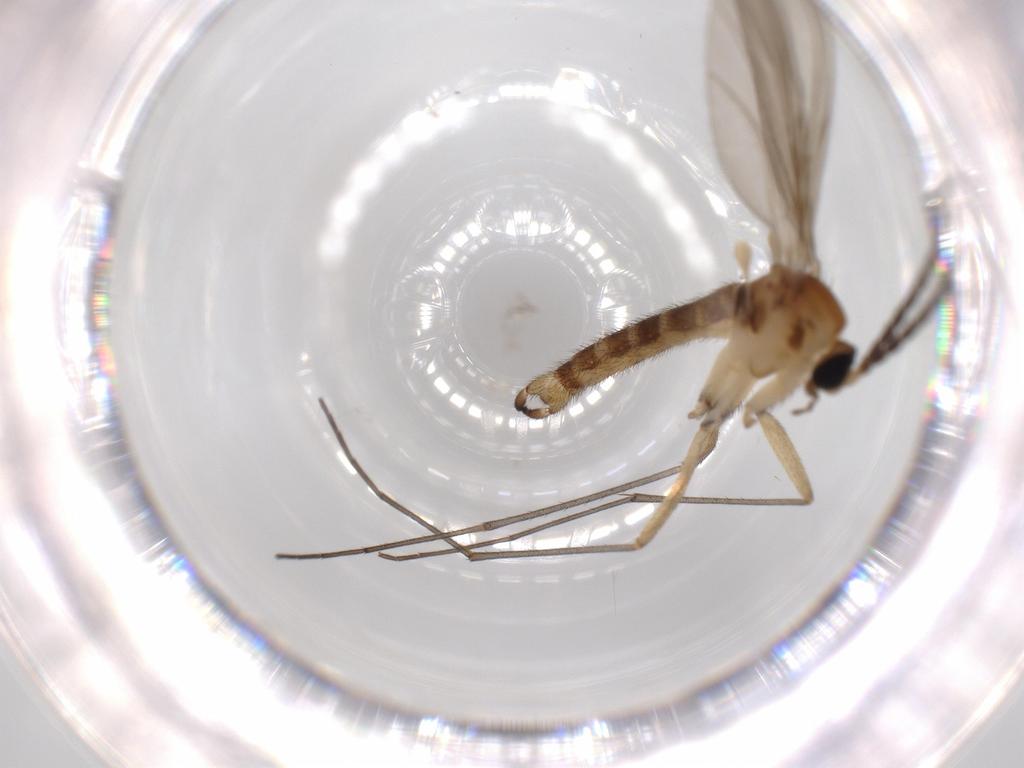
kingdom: Animalia
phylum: Arthropoda
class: Insecta
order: Diptera
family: Sciaridae
